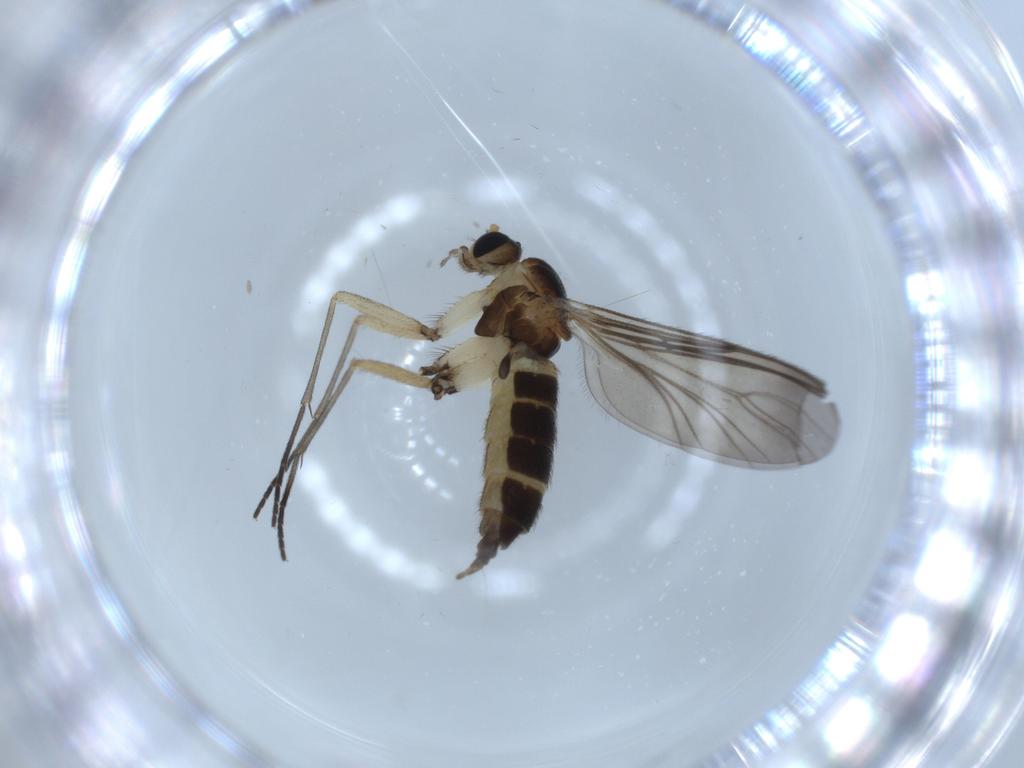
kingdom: Animalia
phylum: Arthropoda
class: Insecta
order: Diptera
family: Sciaridae
